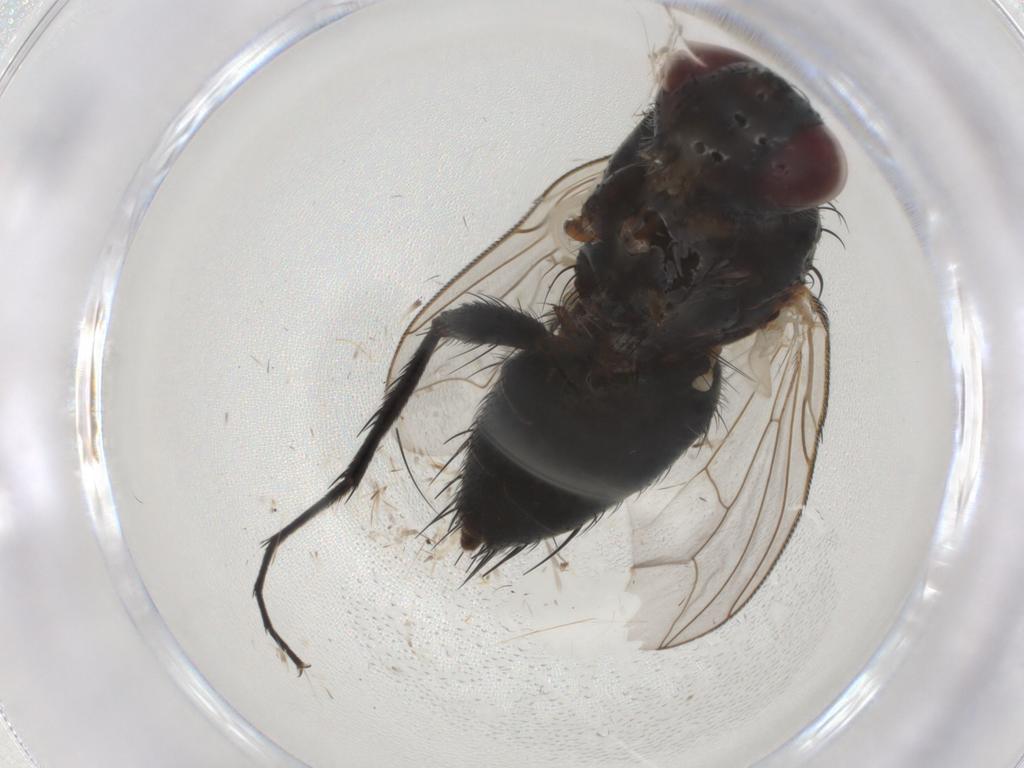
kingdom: Animalia
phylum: Arthropoda
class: Insecta
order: Diptera
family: Tachinidae
